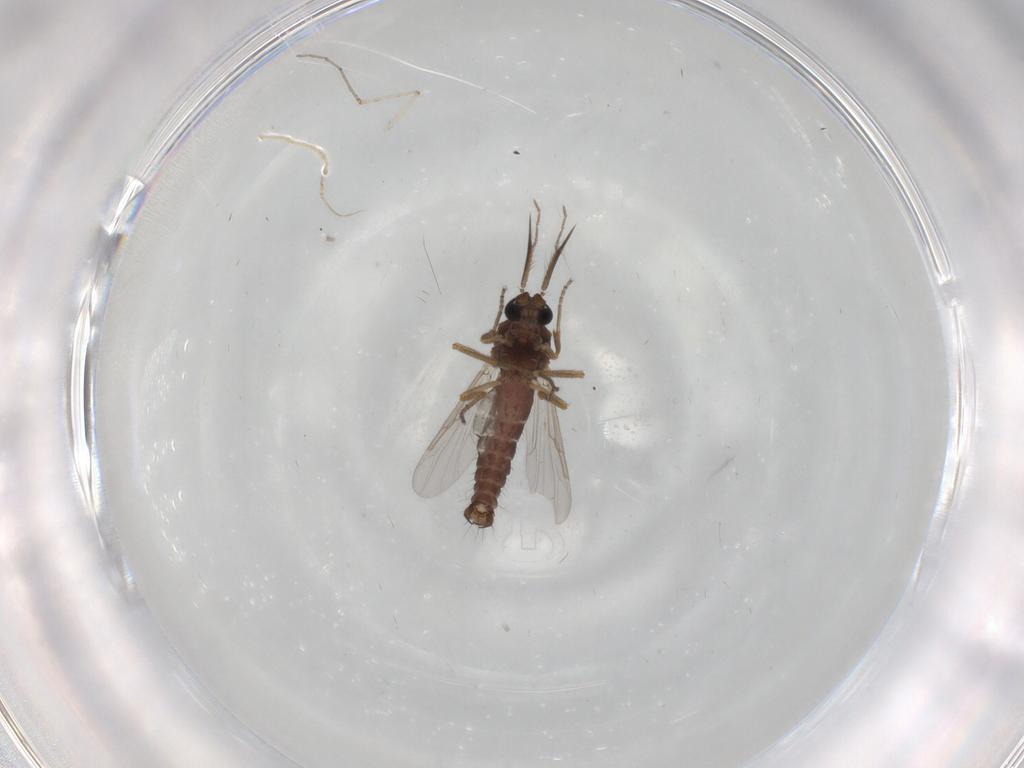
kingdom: Animalia
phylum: Arthropoda
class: Insecta
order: Diptera
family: Ceratopogonidae
